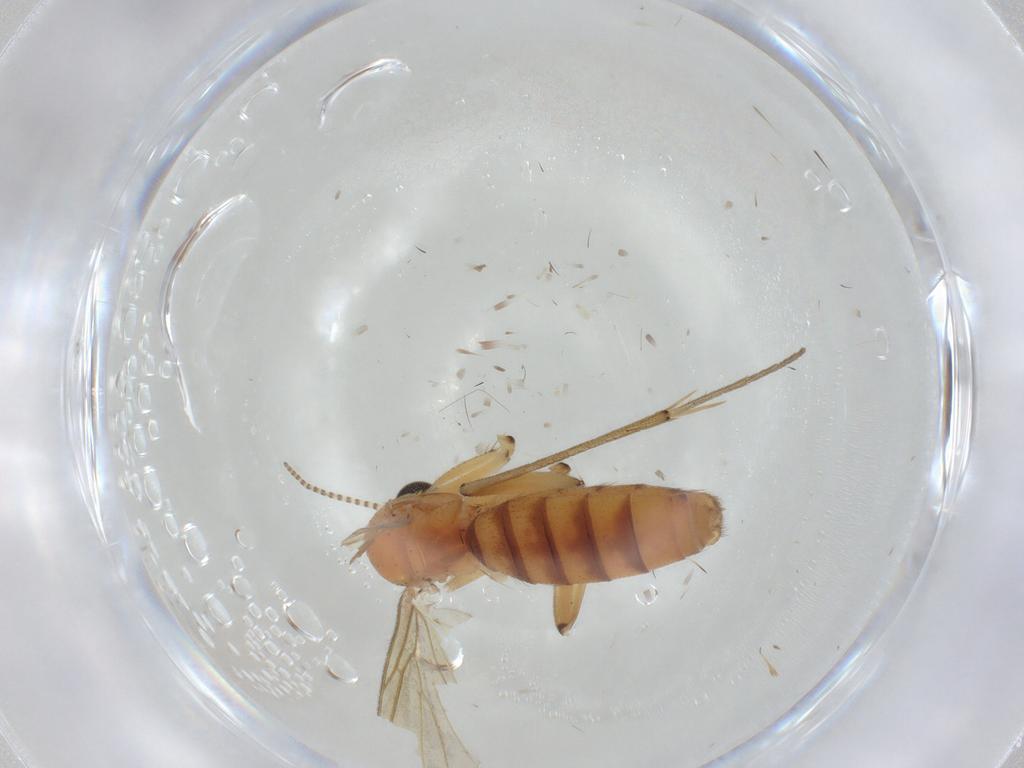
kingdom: Animalia
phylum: Arthropoda
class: Insecta
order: Diptera
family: Mycetophilidae
